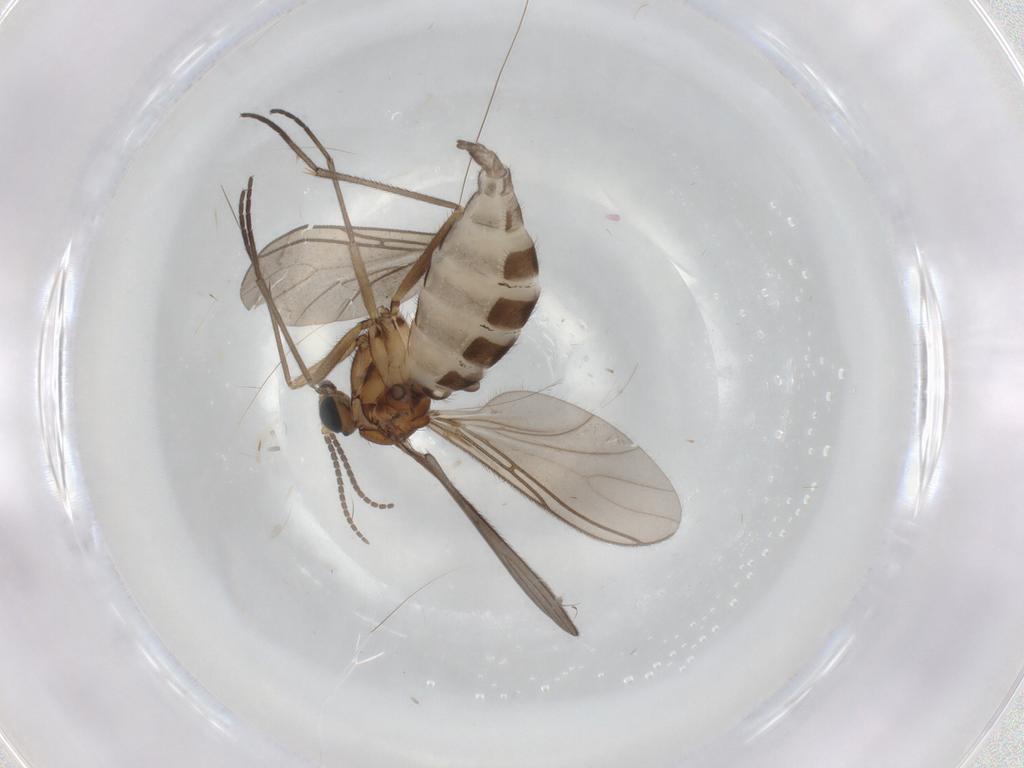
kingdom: Animalia
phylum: Arthropoda
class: Insecta
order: Diptera
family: Sciaridae
